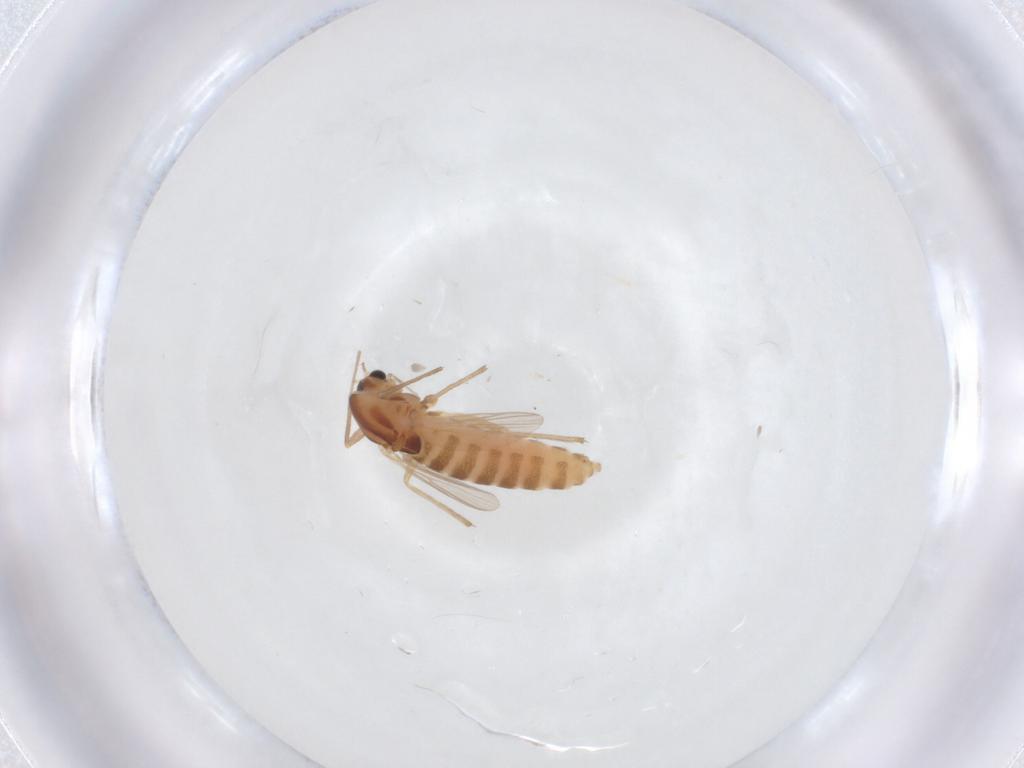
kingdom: Animalia
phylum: Arthropoda
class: Insecta
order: Diptera
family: Chironomidae
